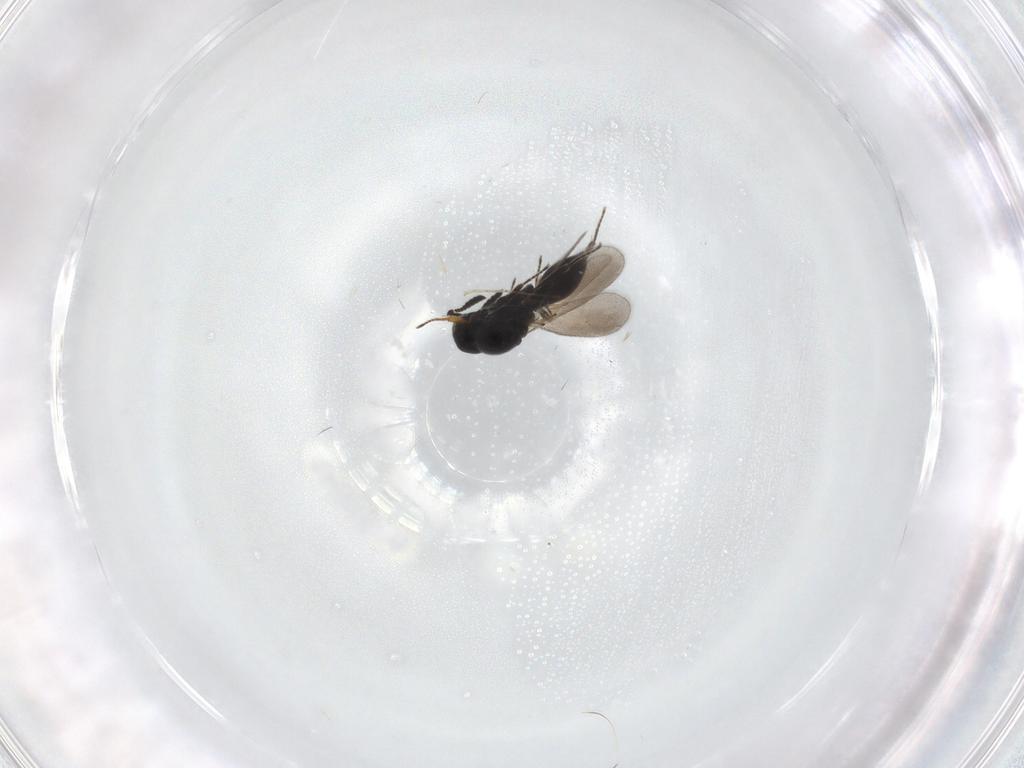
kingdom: Animalia
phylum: Arthropoda
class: Insecta
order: Hymenoptera
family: Platygastridae
